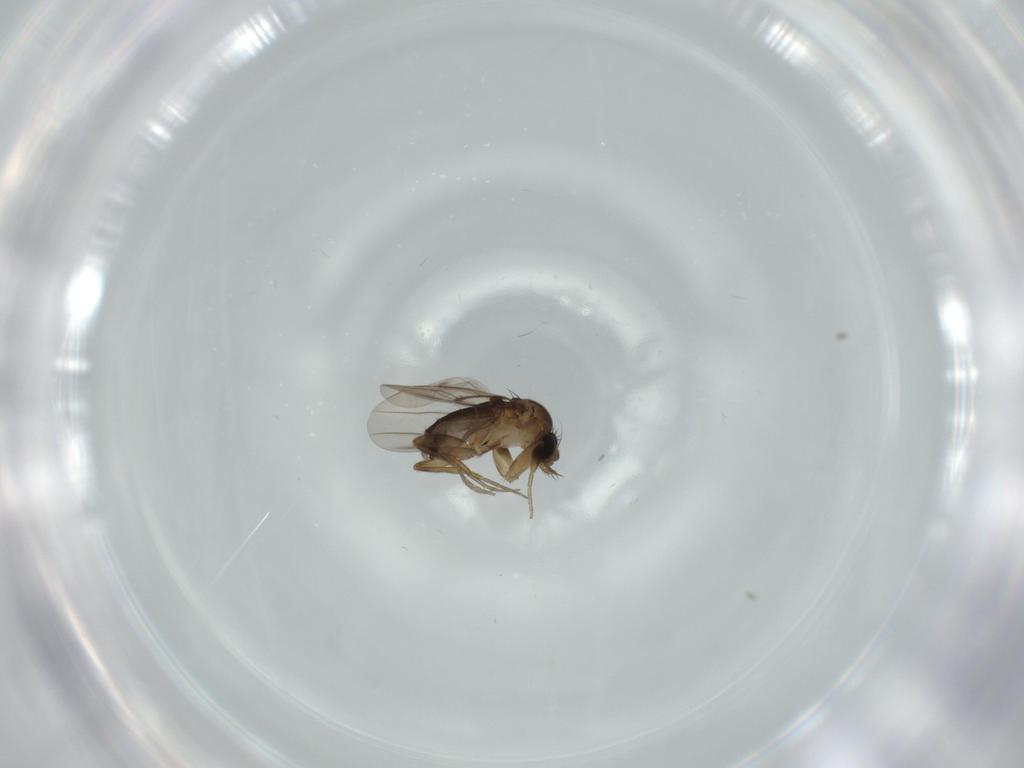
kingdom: Animalia
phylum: Arthropoda
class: Insecta
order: Diptera
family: Phoridae
